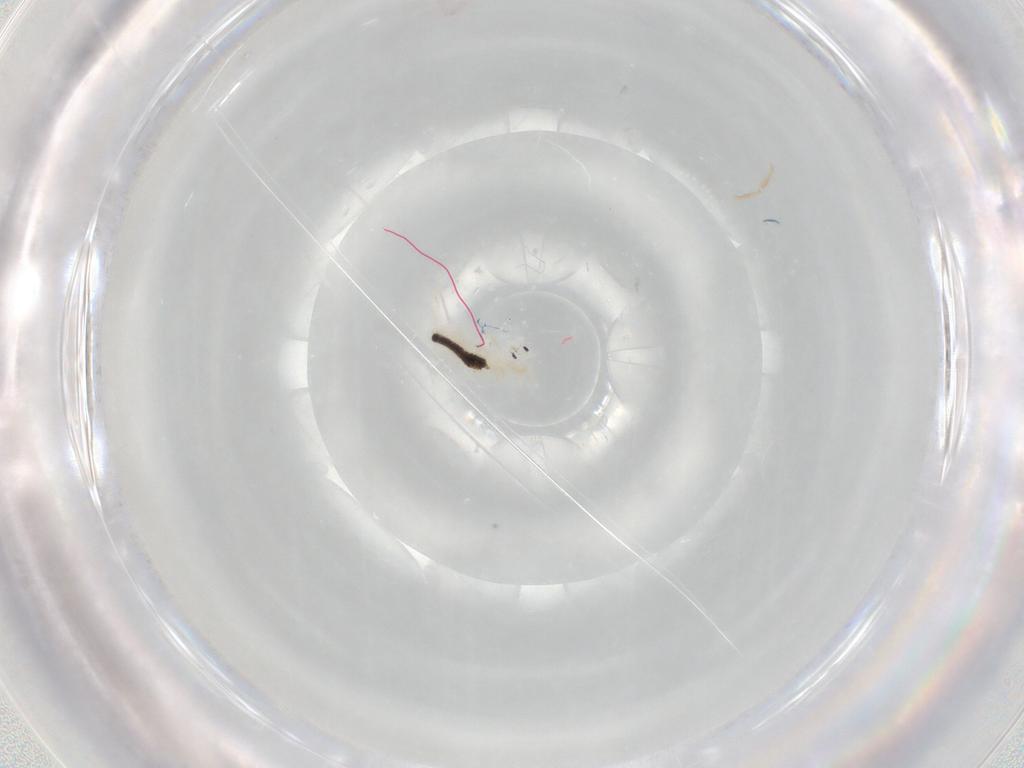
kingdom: Animalia
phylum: Arthropoda
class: Collembola
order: Entomobryomorpha
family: Entomobryidae
